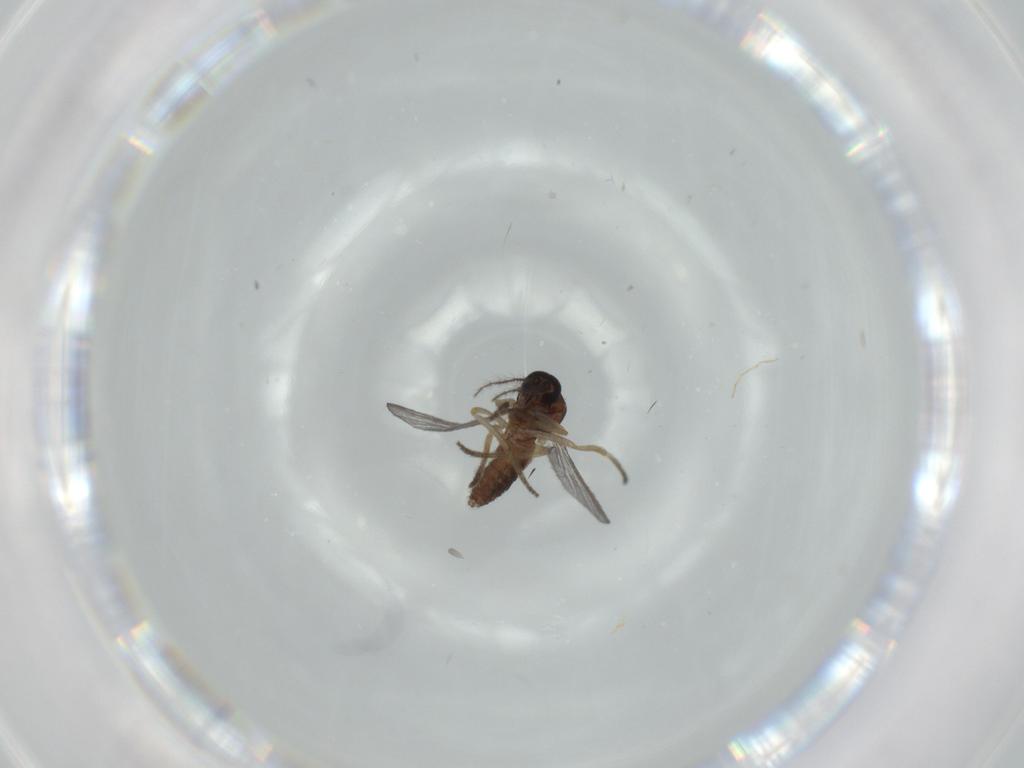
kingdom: Animalia
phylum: Arthropoda
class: Insecta
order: Diptera
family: Ceratopogonidae
